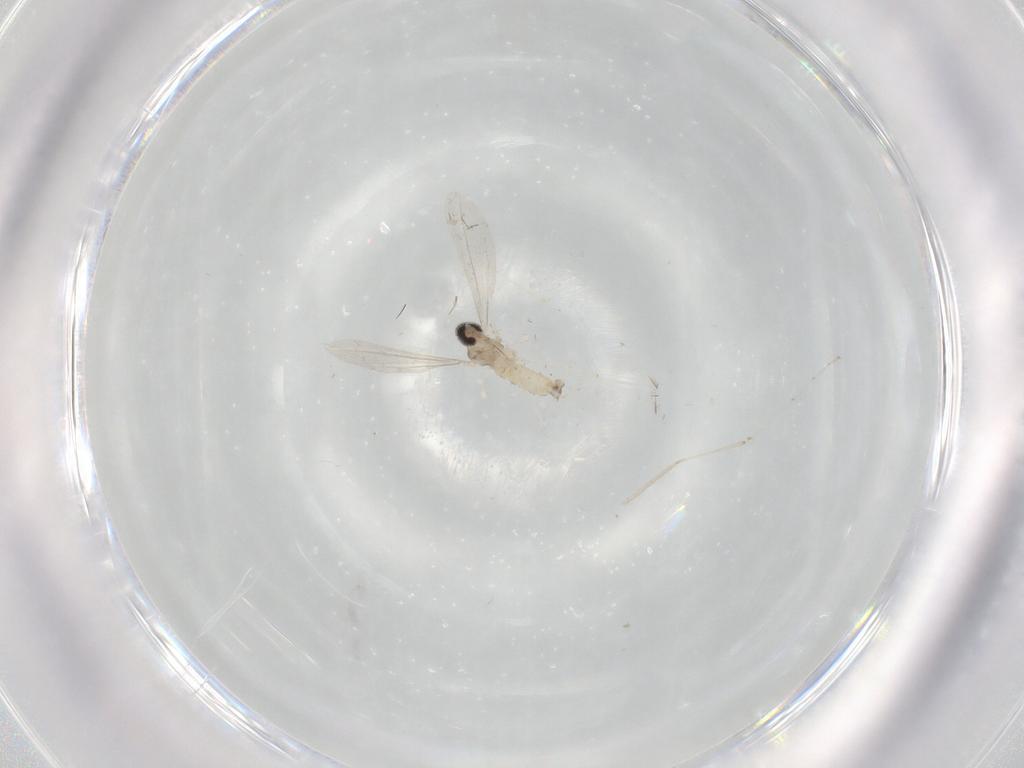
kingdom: Animalia
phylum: Arthropoda
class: Insecta
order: Diptera
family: Cecidomyiidae
